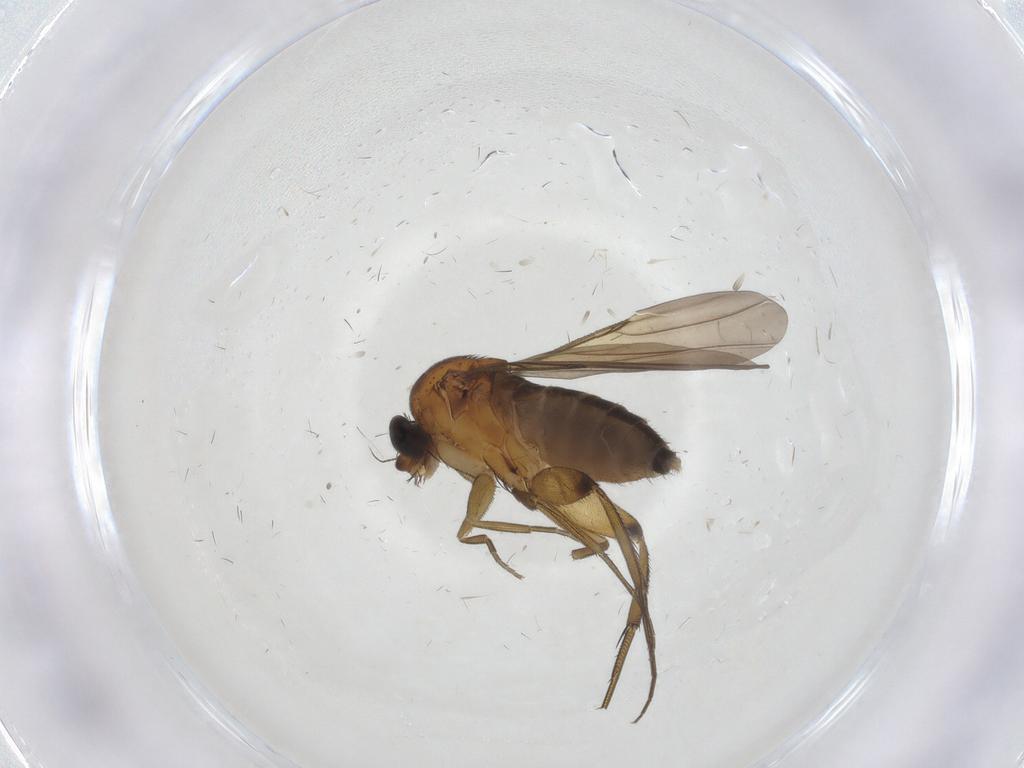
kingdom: Animalia
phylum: Arthropoda
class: Insecta
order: Diptera
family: Phoridae
